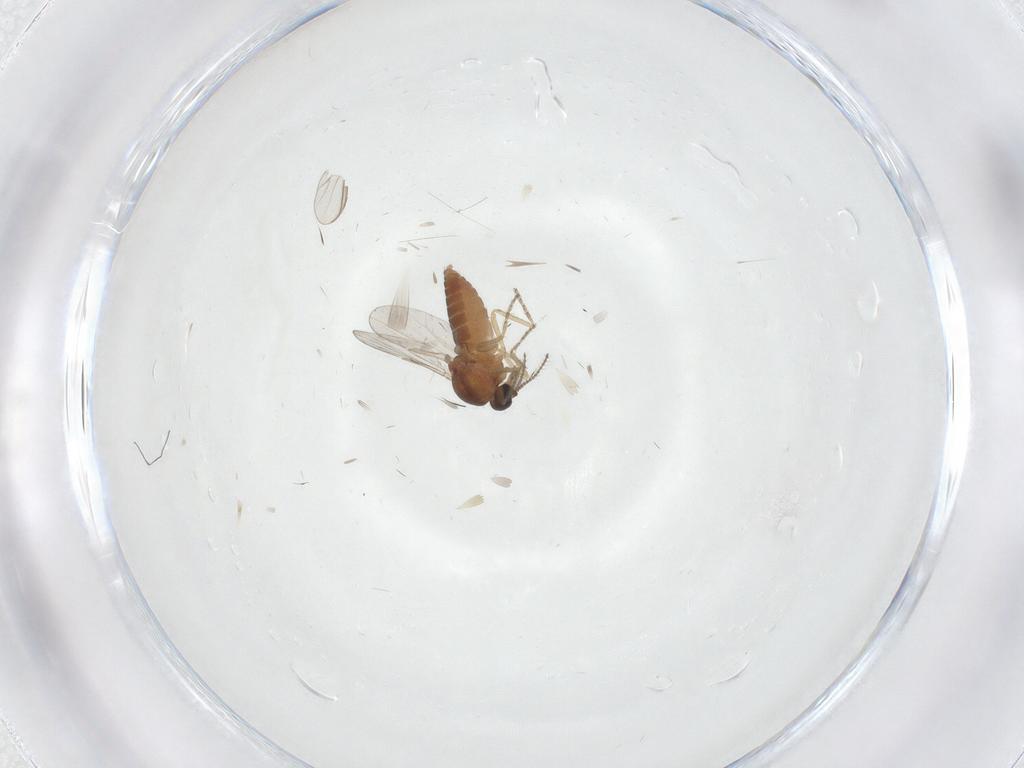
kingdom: Animalia
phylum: Arthropoda
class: Insecta
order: Diptera
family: Ceratopogonidae
